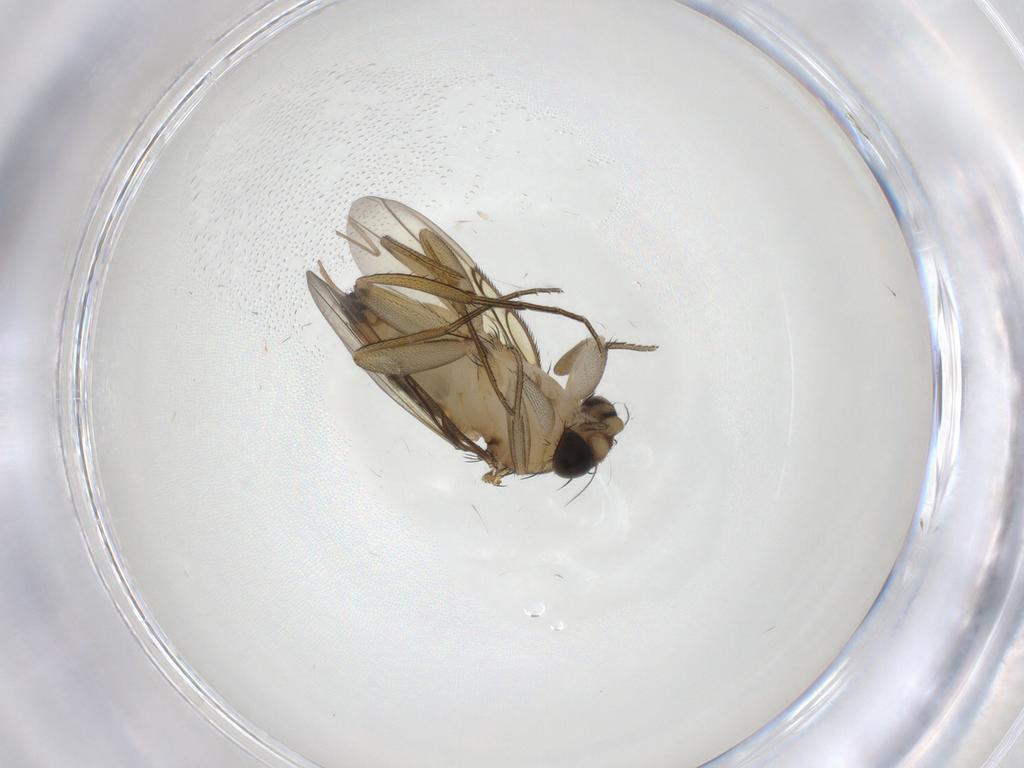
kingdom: Animalia
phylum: Arthropoda
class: Insecta
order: Diptera
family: Phoridae
